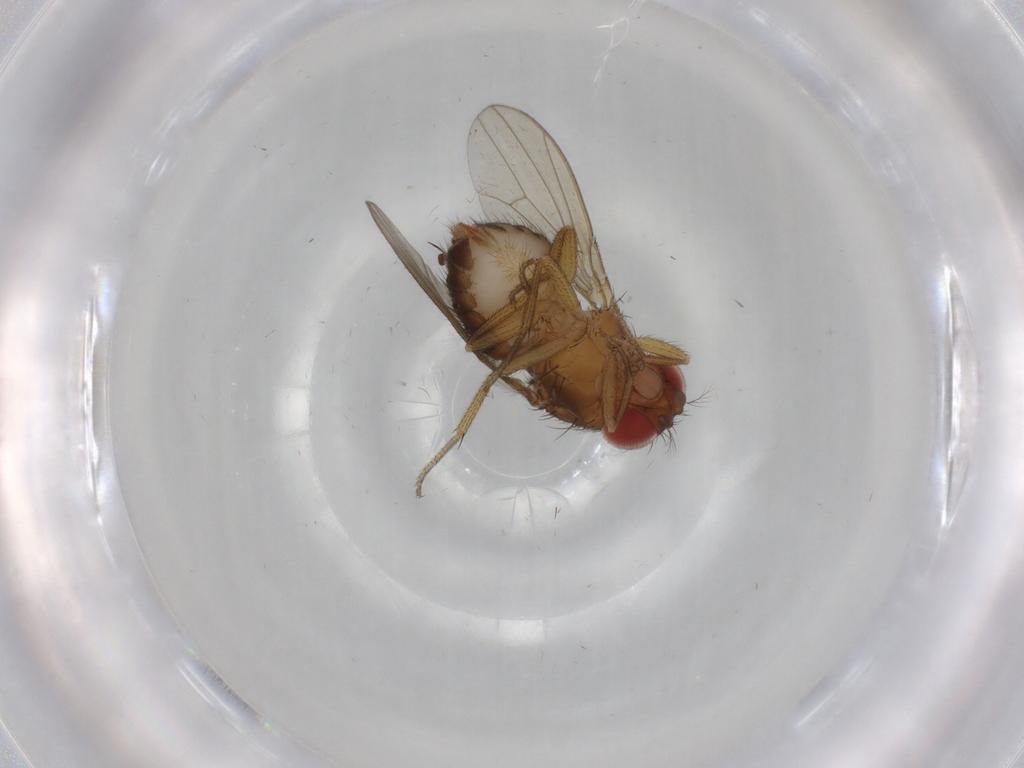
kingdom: Animalia
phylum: Arthropoda
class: Insecta
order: Diptera
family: Drosophilidae
